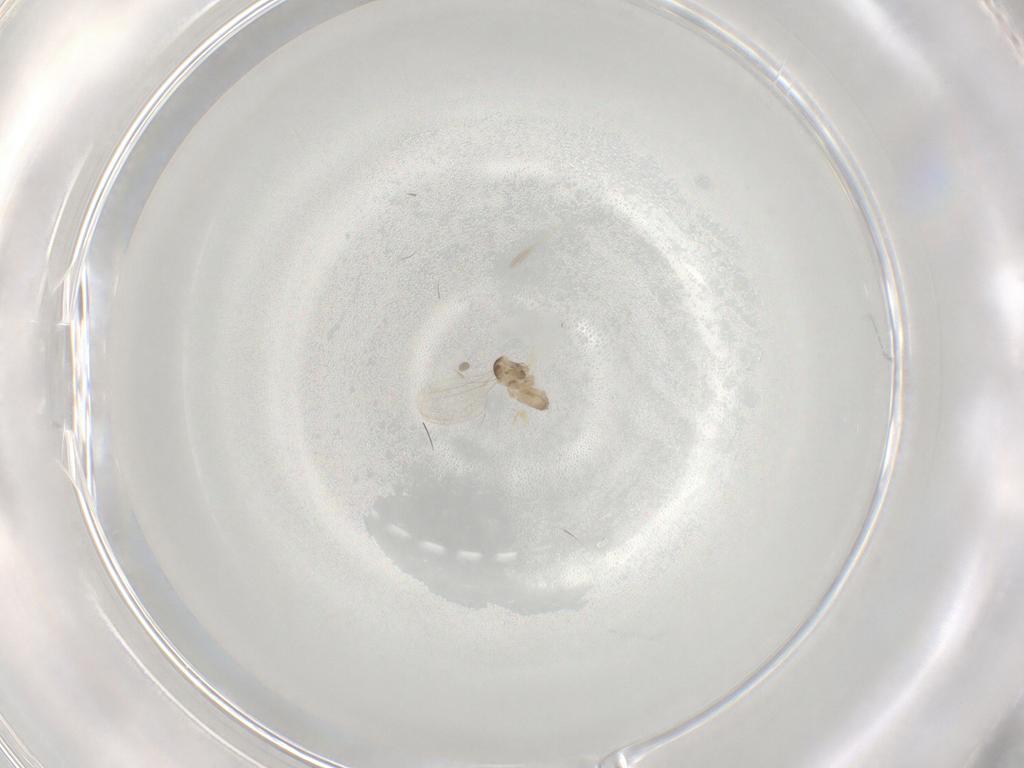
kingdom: Animalia
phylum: Arthropoda
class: Insecta
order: Diptera
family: Cecidomyiidae
